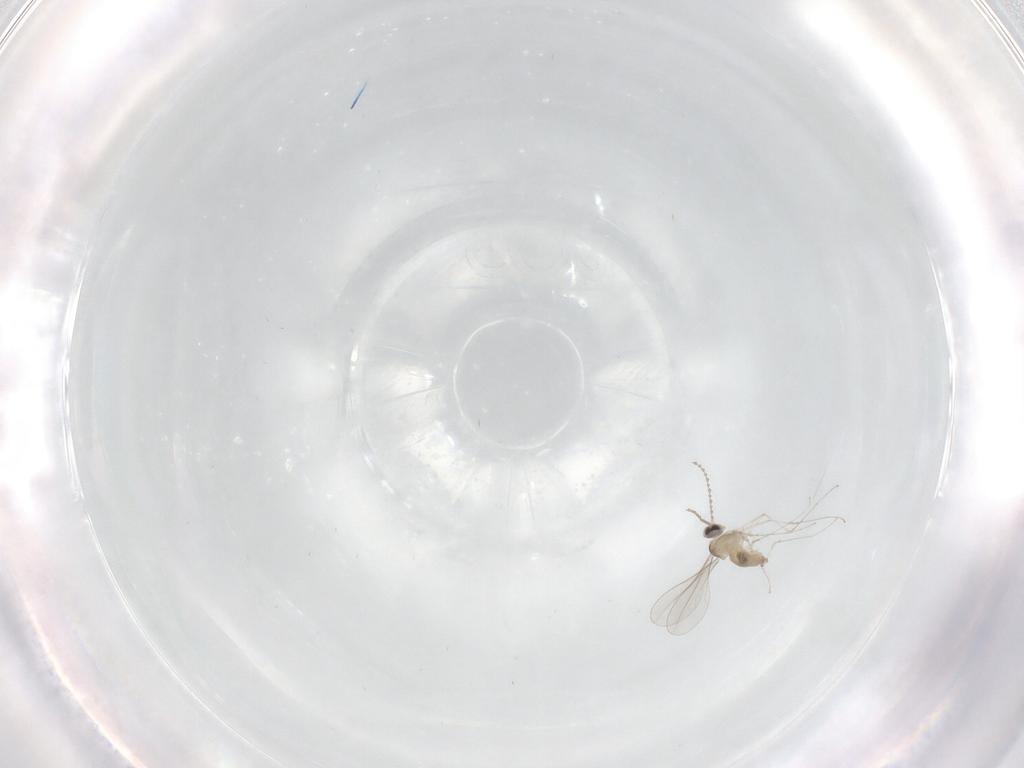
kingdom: Animalia
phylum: Arthropoda
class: Insecta
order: Diptera
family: Cecidomyiidae
